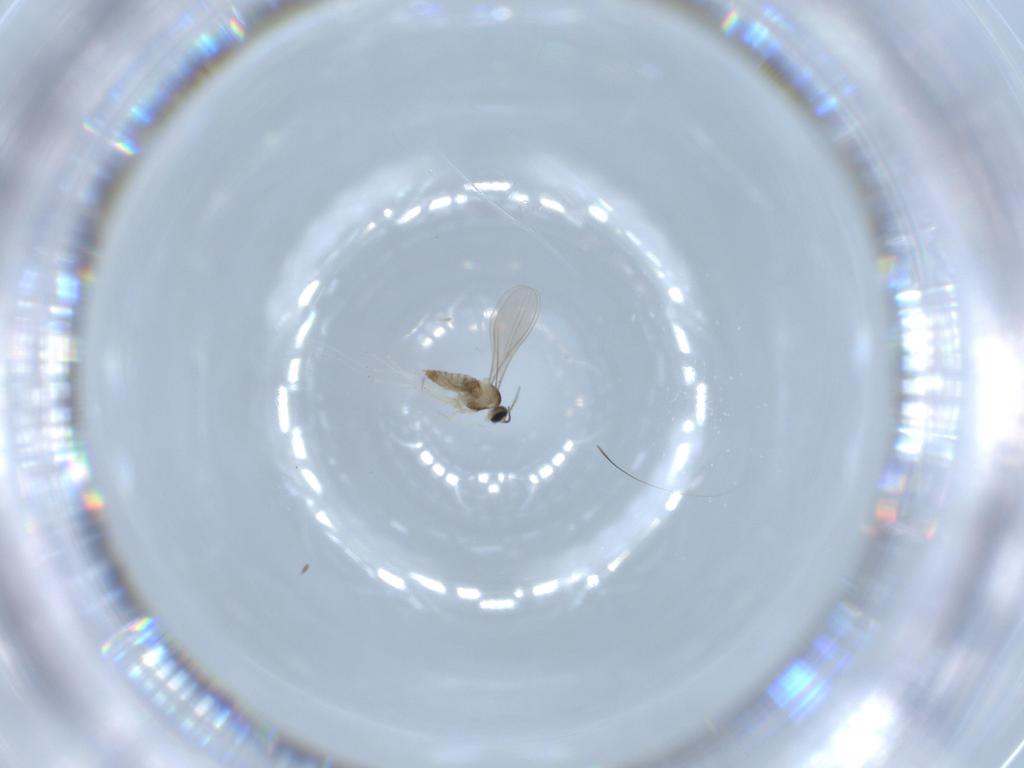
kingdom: Animalia
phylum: Arthropoda
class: Insecta
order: Diptera
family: Sciaridae
